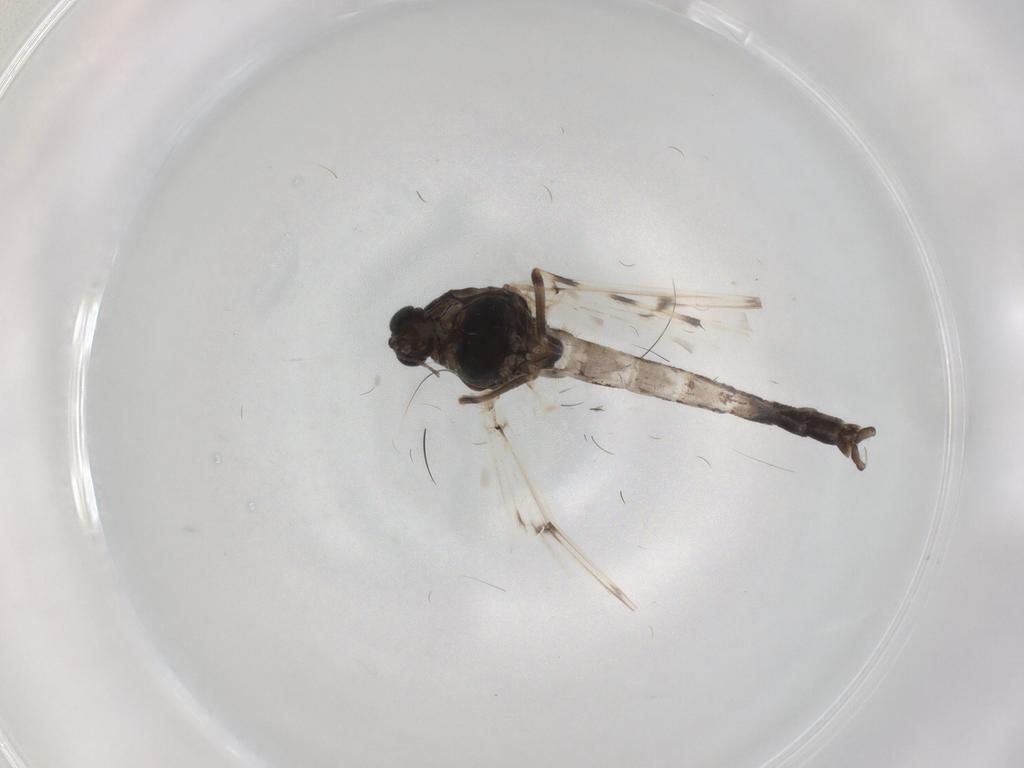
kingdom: Animalia
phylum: Arthropoda
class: Insecta
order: Diptera
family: Chironomidae
